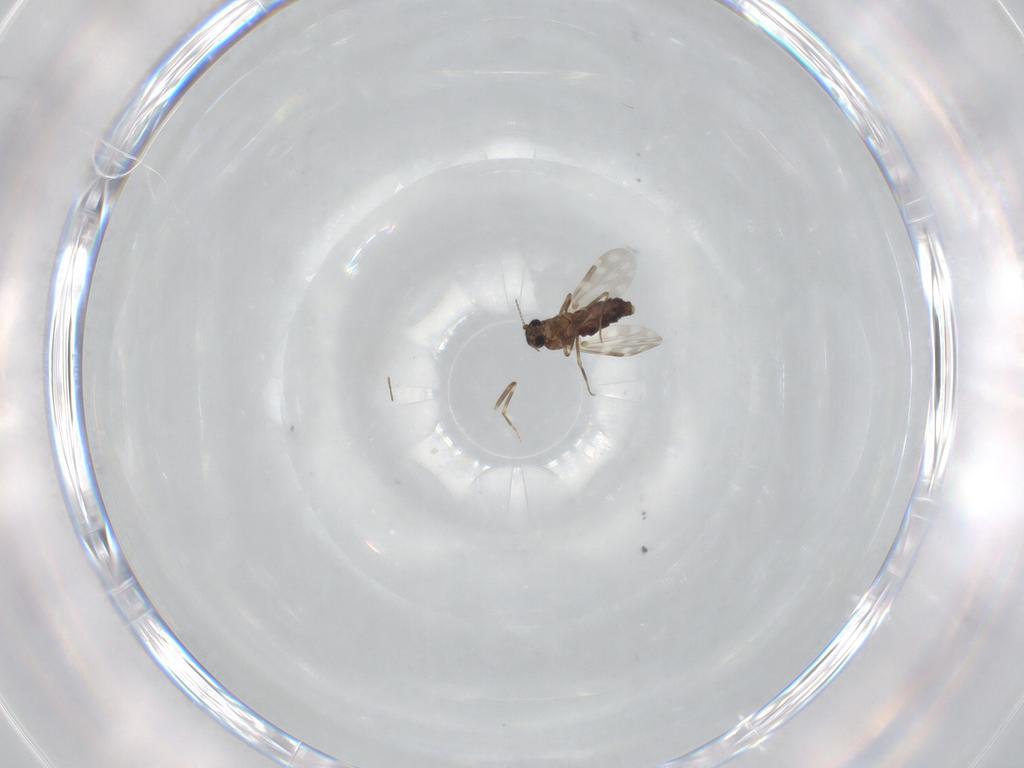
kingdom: Animalia
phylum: Arthropoda
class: Insecta
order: Diptera
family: Ceratopogonidae
